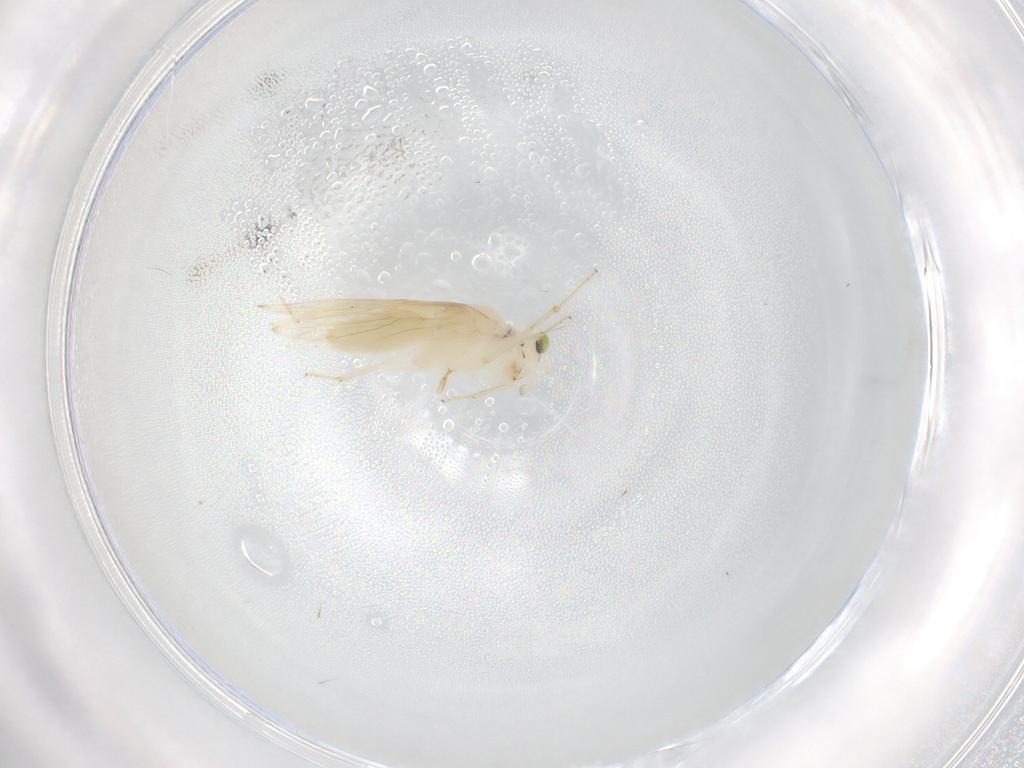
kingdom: Animalia
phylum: Arthropoda
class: Insecta
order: Psocodea
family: Lepidopsocidae
